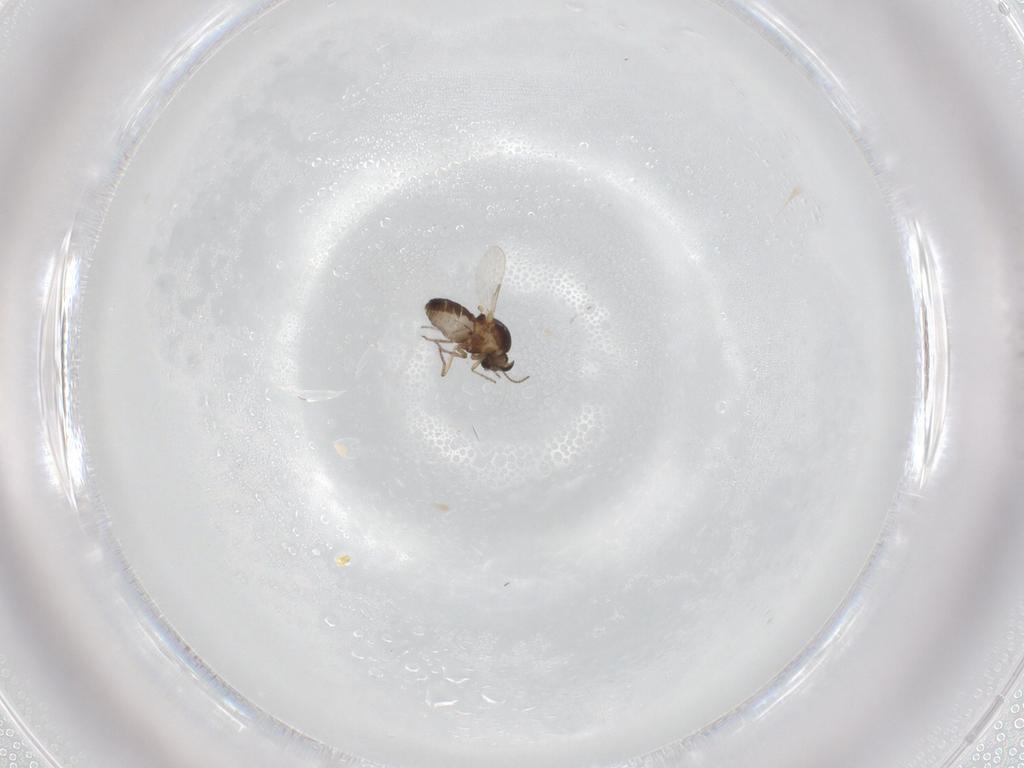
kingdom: Animalia
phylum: Arthropoda
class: Insecta
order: Diptera
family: Ceratopogonidae
